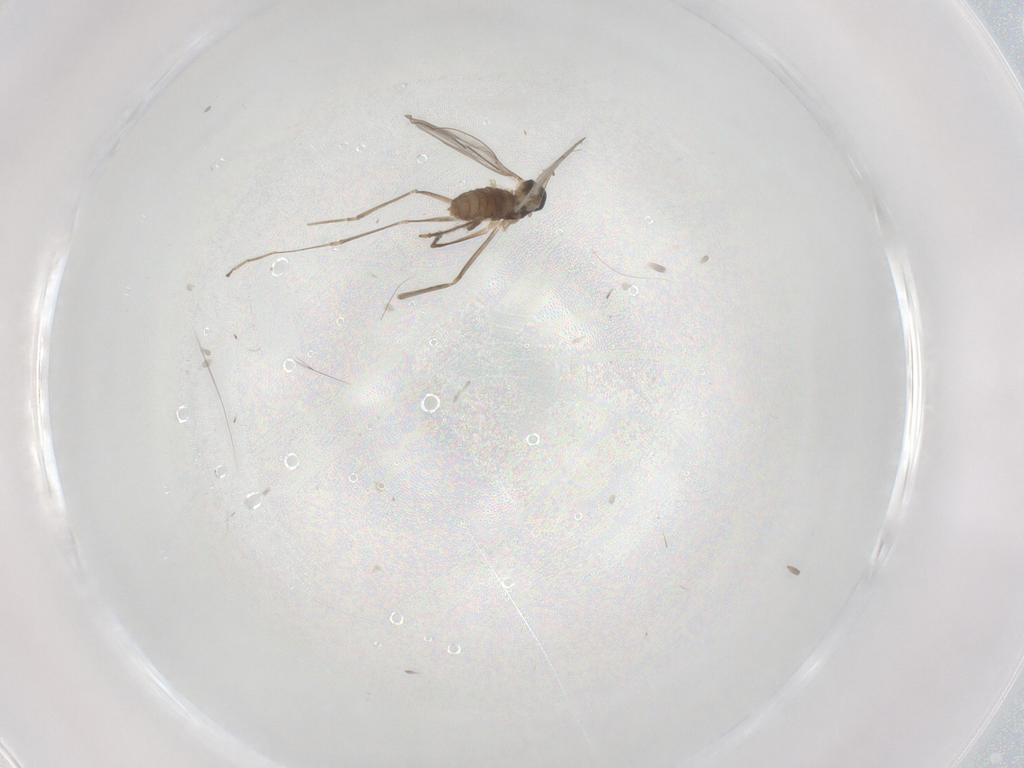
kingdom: Animalia
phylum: Arthropoda
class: Insecta
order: Diptera
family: Cecidomyiidae
